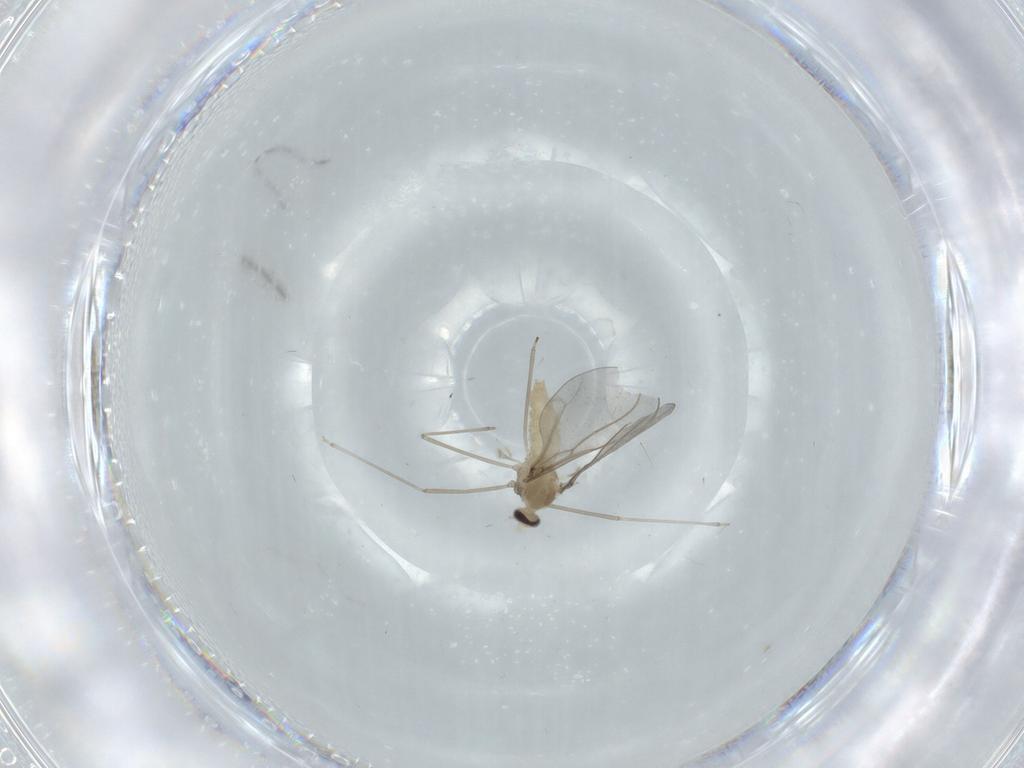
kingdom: Animalia
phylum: Arthropoda
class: Insecta
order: Diptera
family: Cecidomyiidae
